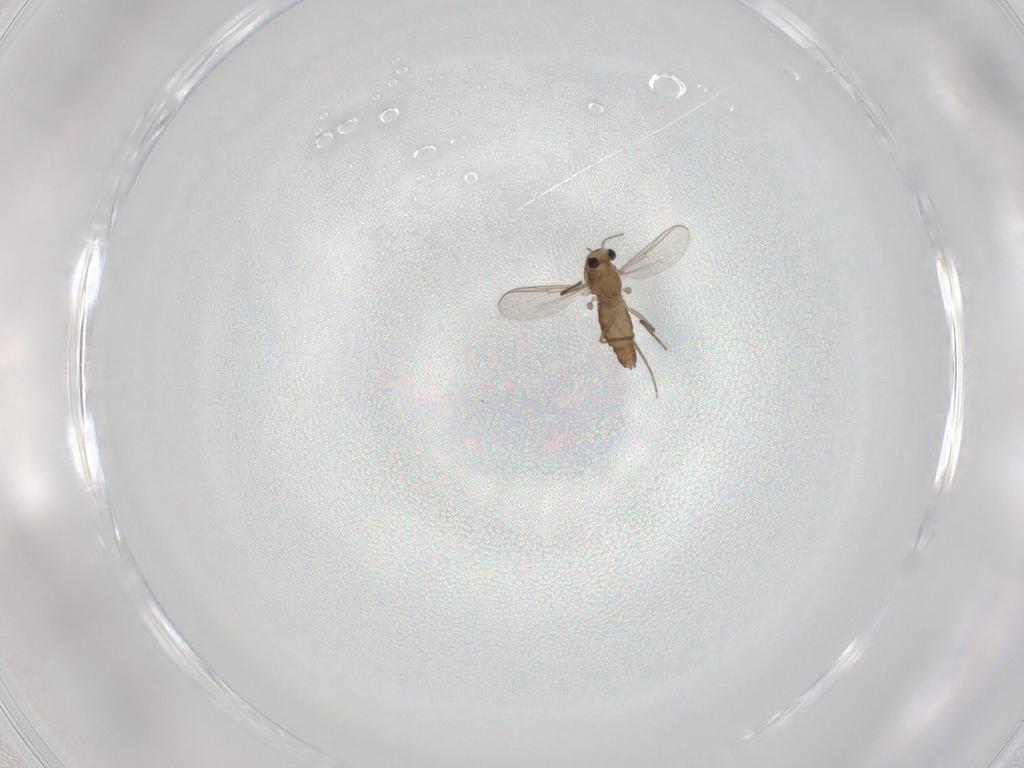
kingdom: Animalia
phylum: Arthropoda
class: Insecta
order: Diptera
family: Chironomidae
